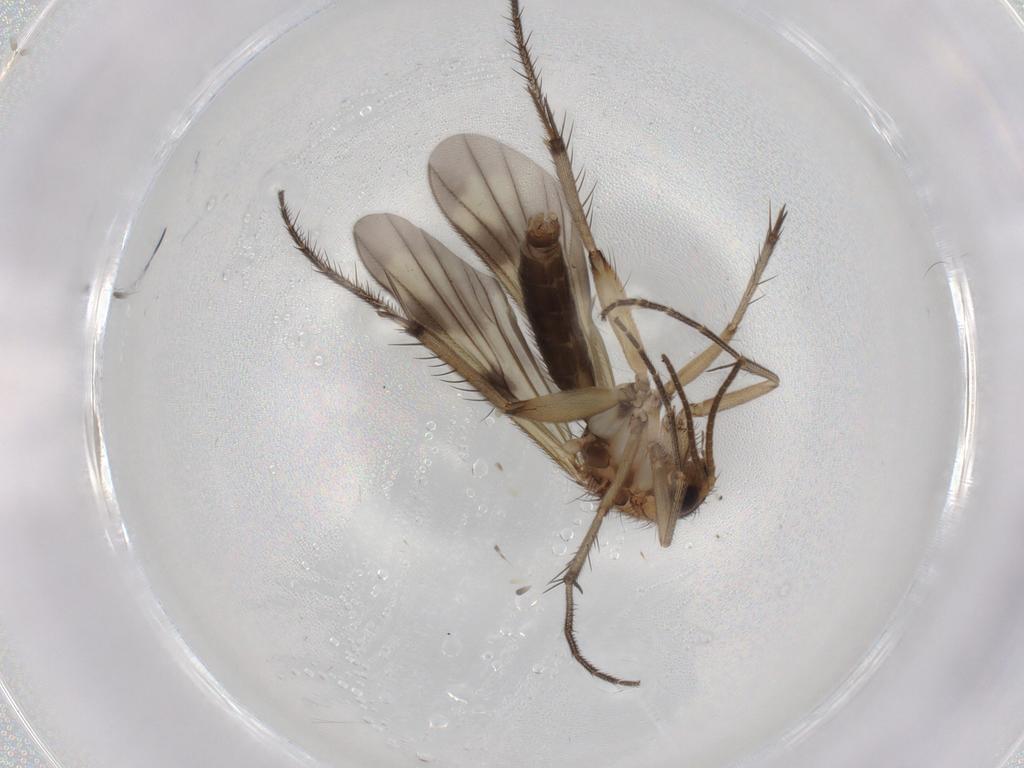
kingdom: Animalia
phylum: Arthropoda
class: Insecta
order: Diptera
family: Mycetophilidae
